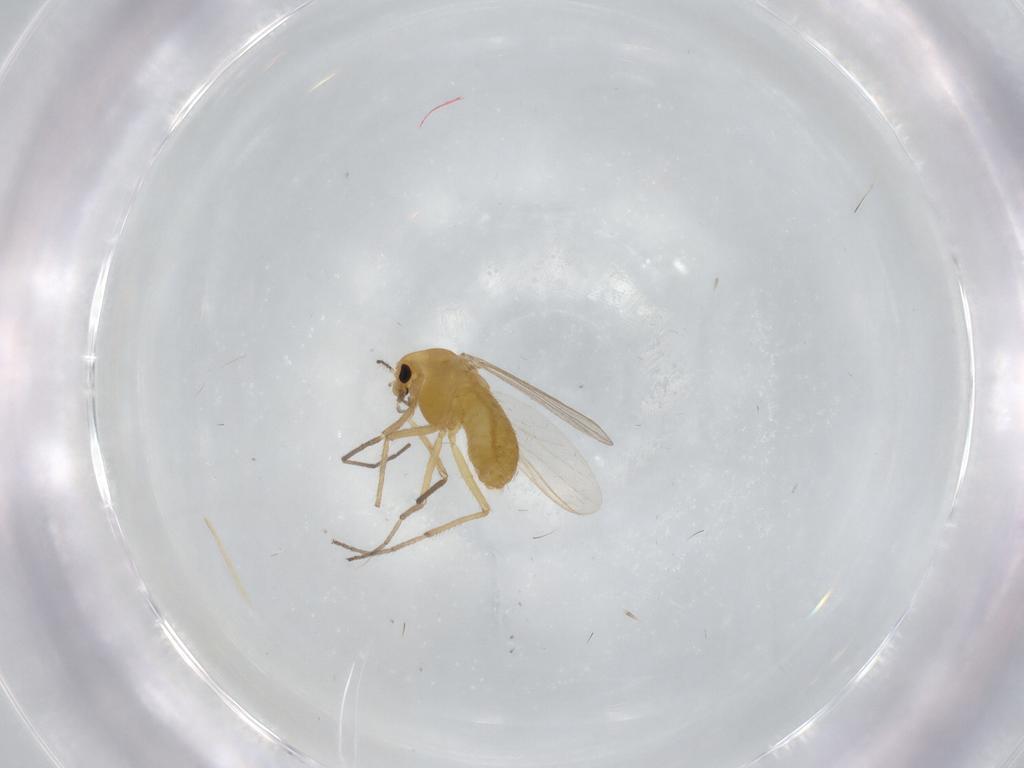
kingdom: Animalia
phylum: Arthropoda
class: Insecta
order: Diptera
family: Chironomidae
